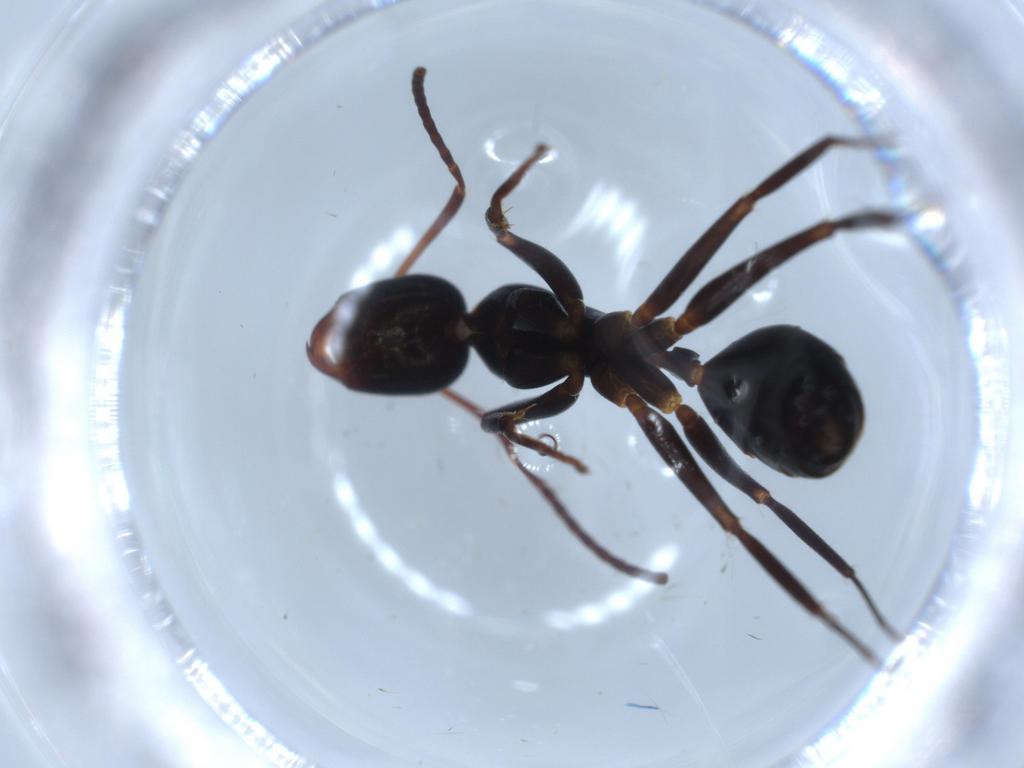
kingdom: Animalia
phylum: Arthropoda
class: Insecta
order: Hymenoptera
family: Formicidae
